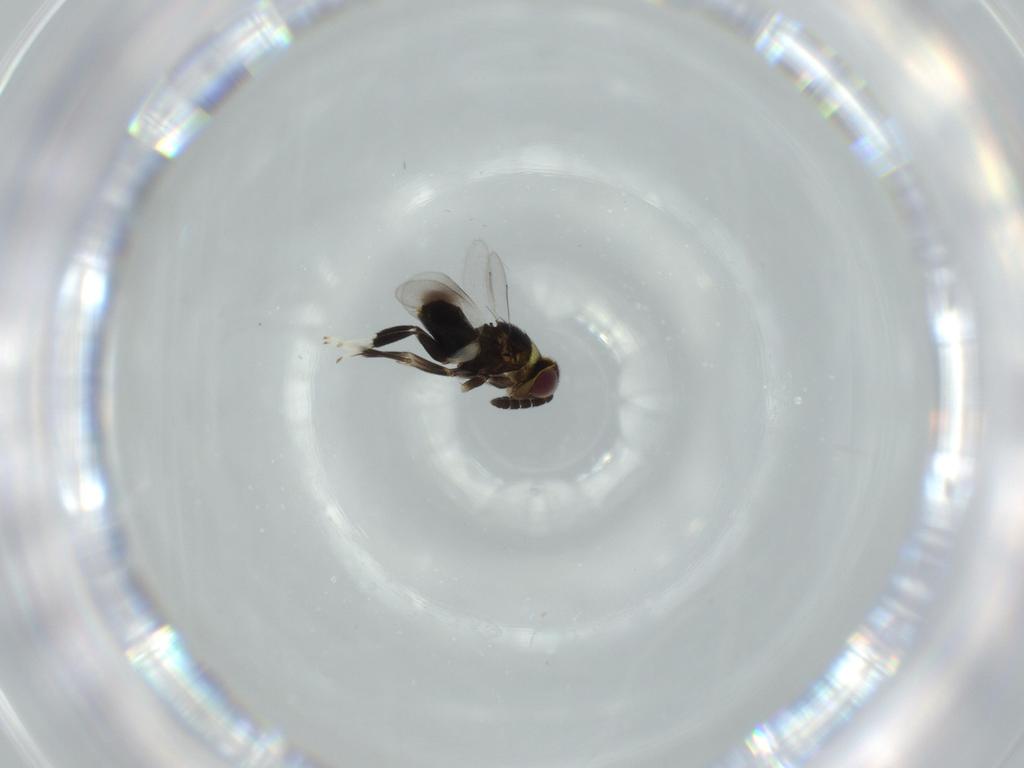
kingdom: Animalia
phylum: Arthropoda
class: Insecta
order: Hymenoptera
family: Aphelinidae
